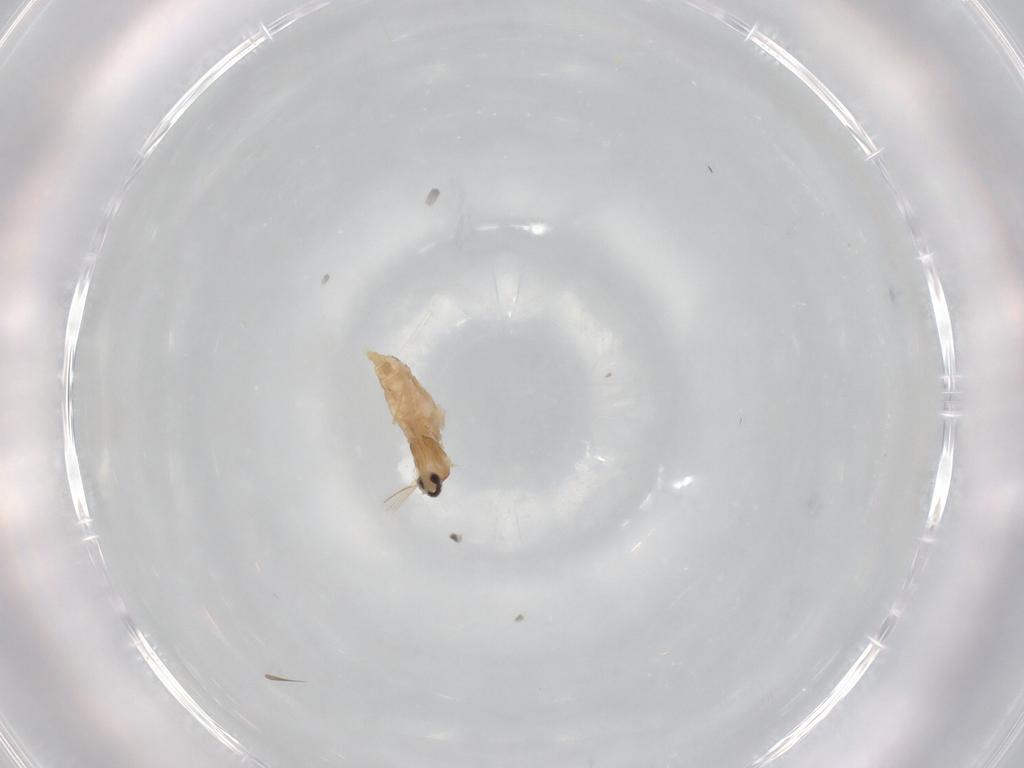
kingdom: Animalia
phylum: Arthropoda
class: Insecta
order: Diptera
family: Cecidomyiidae
